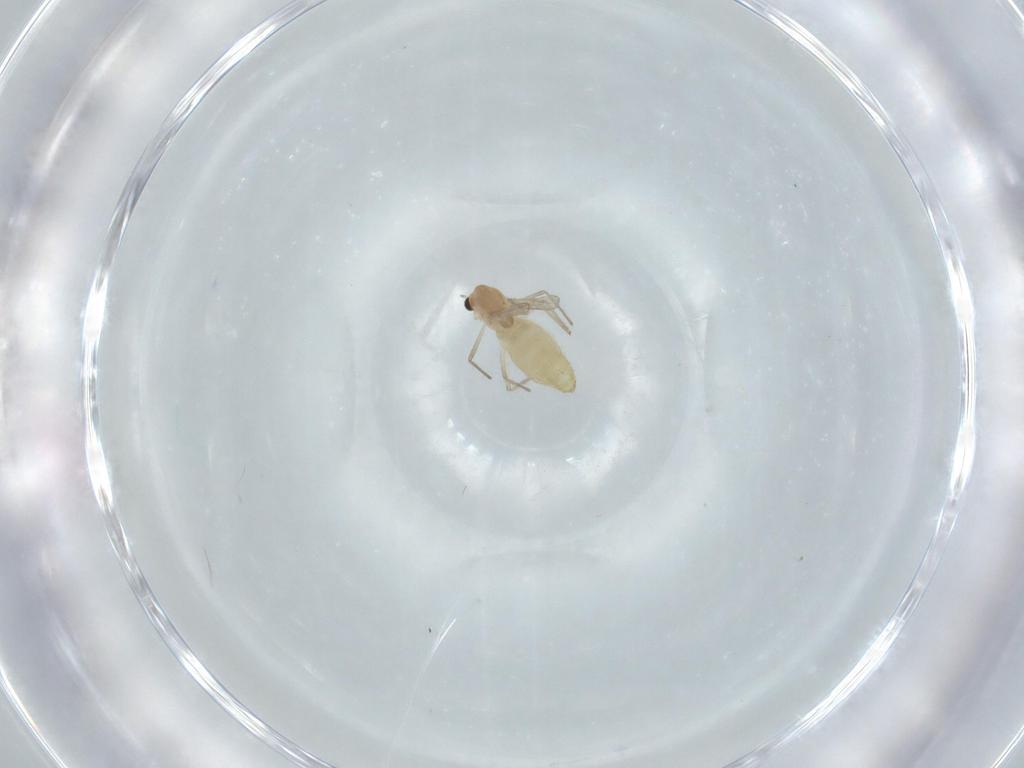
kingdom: Animalia
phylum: Arthropoda
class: Insecta
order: Diptera
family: Chironomidae
